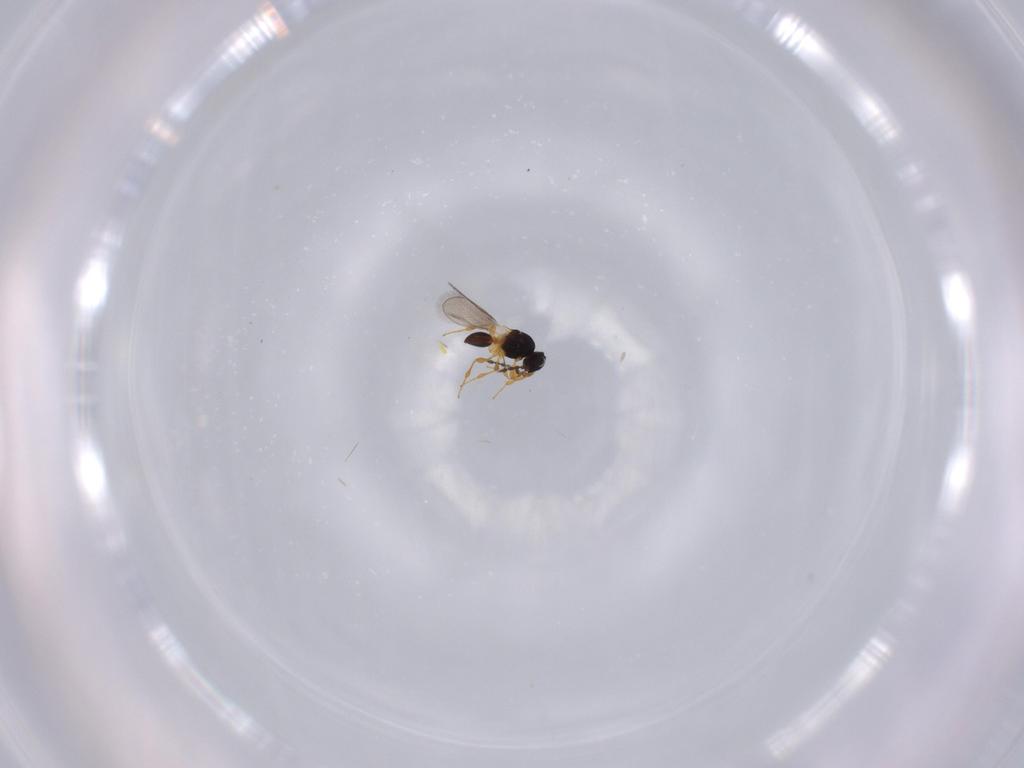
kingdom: Animalia
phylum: Arthropoda
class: Insecta
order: Hymenoptera
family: Platygastridae
